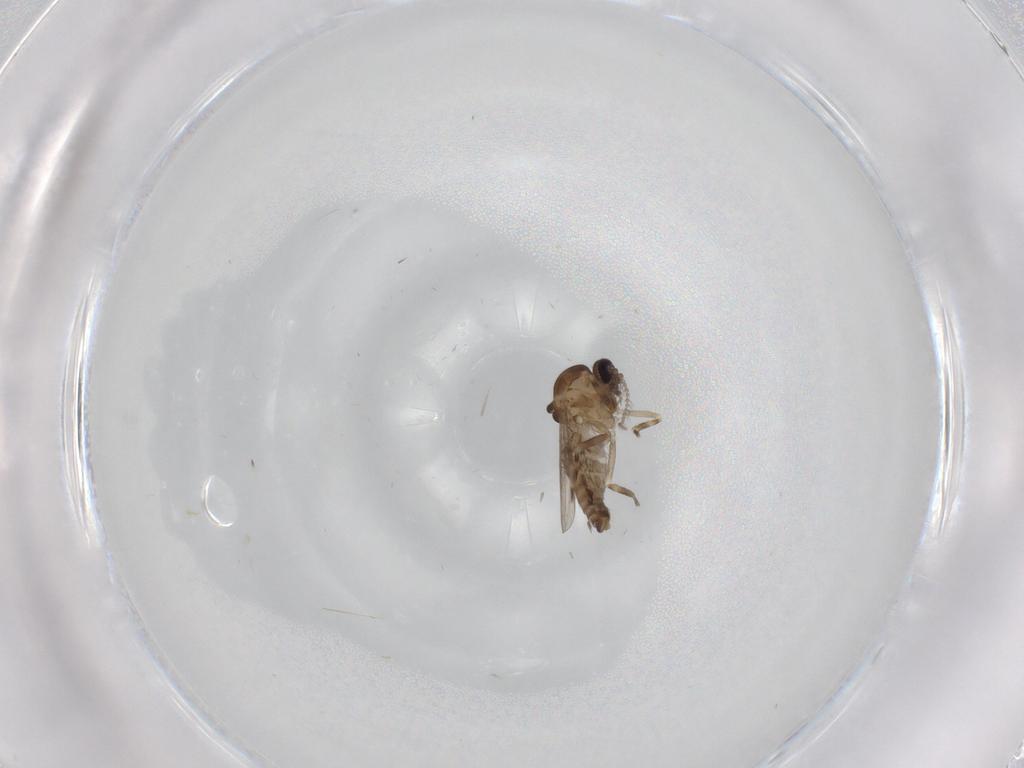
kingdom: Animalia
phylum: Arthropoda
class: Insecta
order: Diptera
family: Ceratopogonidae
